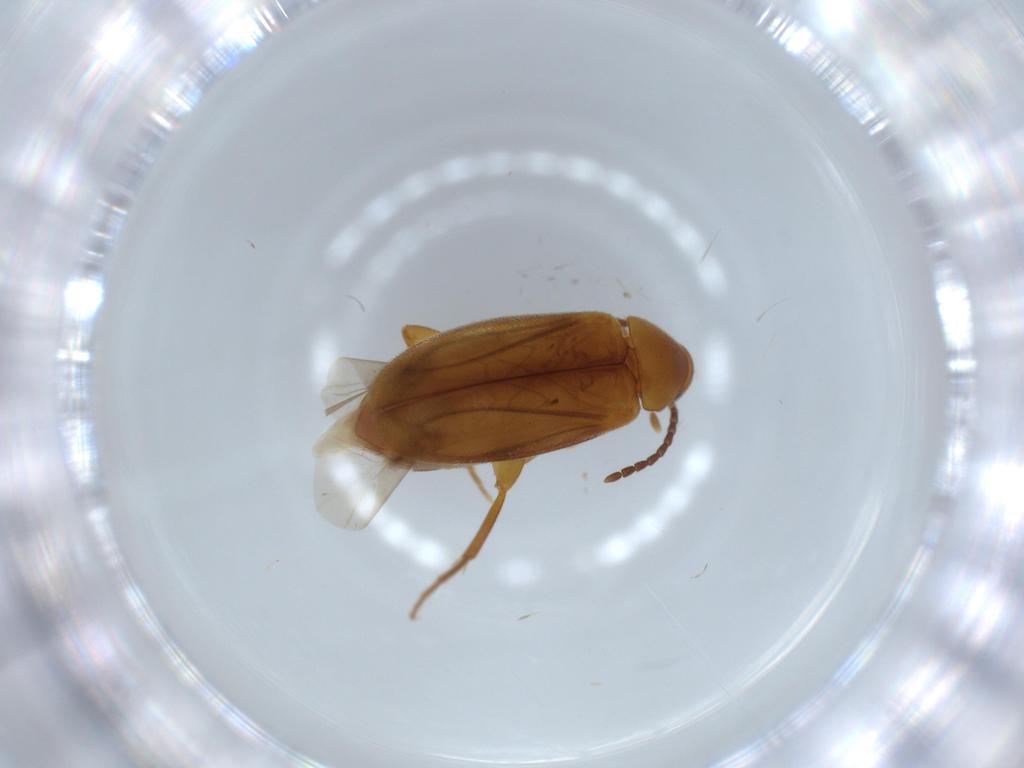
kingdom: Animalia
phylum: Arthropoda
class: Insecta
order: Coleoptera
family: Scraptiidae
